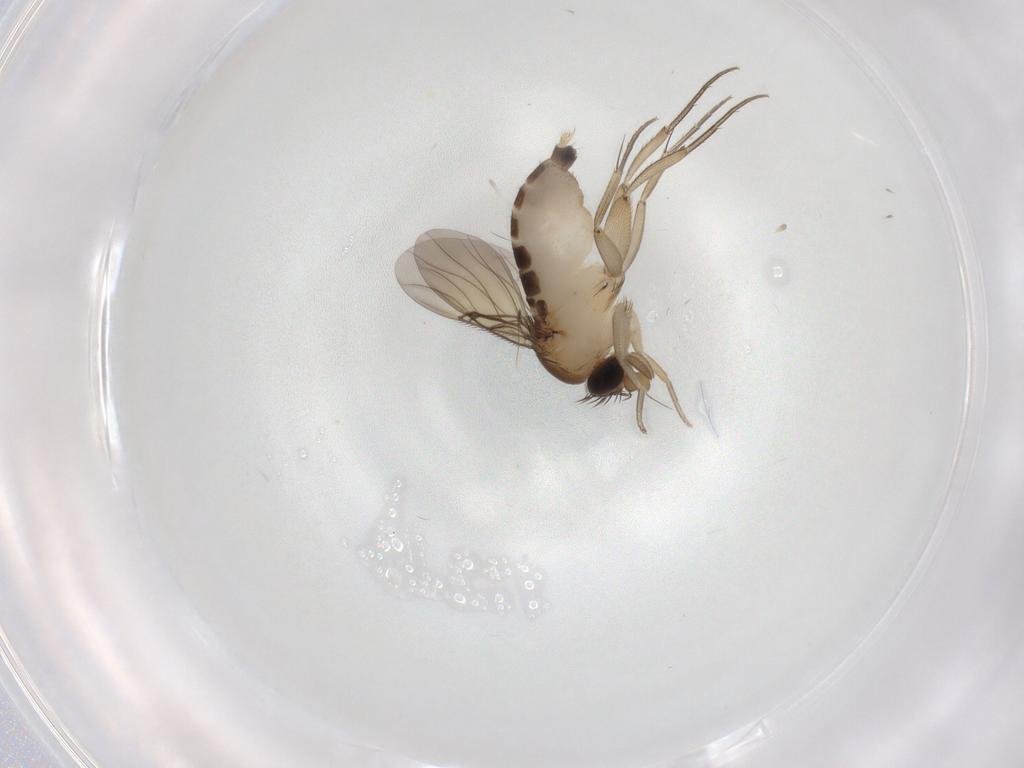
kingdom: Animalia
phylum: Arthropoda
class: Insecta
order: Diptera
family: Phoridae
